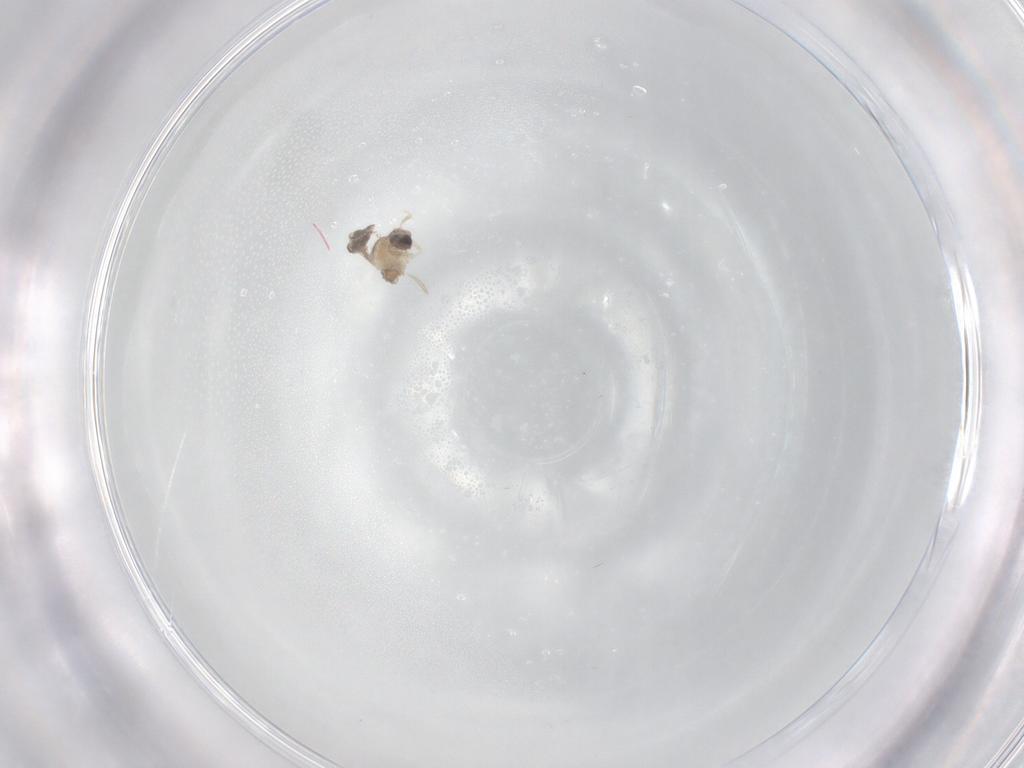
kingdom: Animalia
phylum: Arthropoda
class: Insecta
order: Diptera
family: Cecidomyiidae
